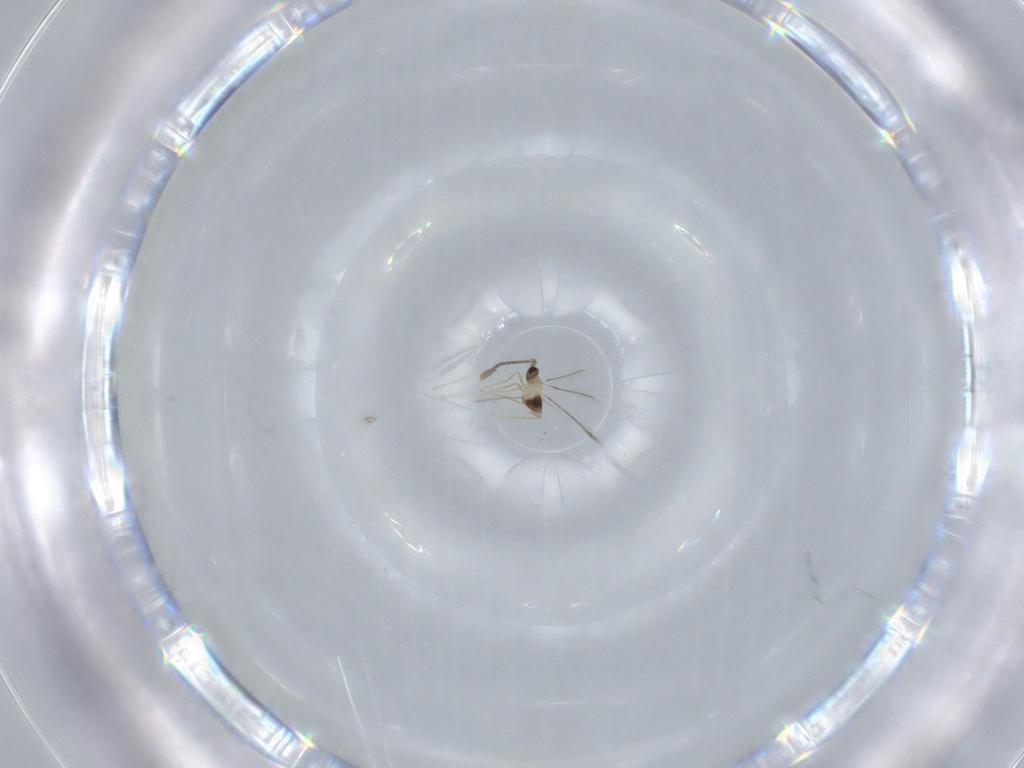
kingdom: Animalia
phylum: Arthropoda
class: Insecta
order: Hymenoptera
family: Mymaridae
